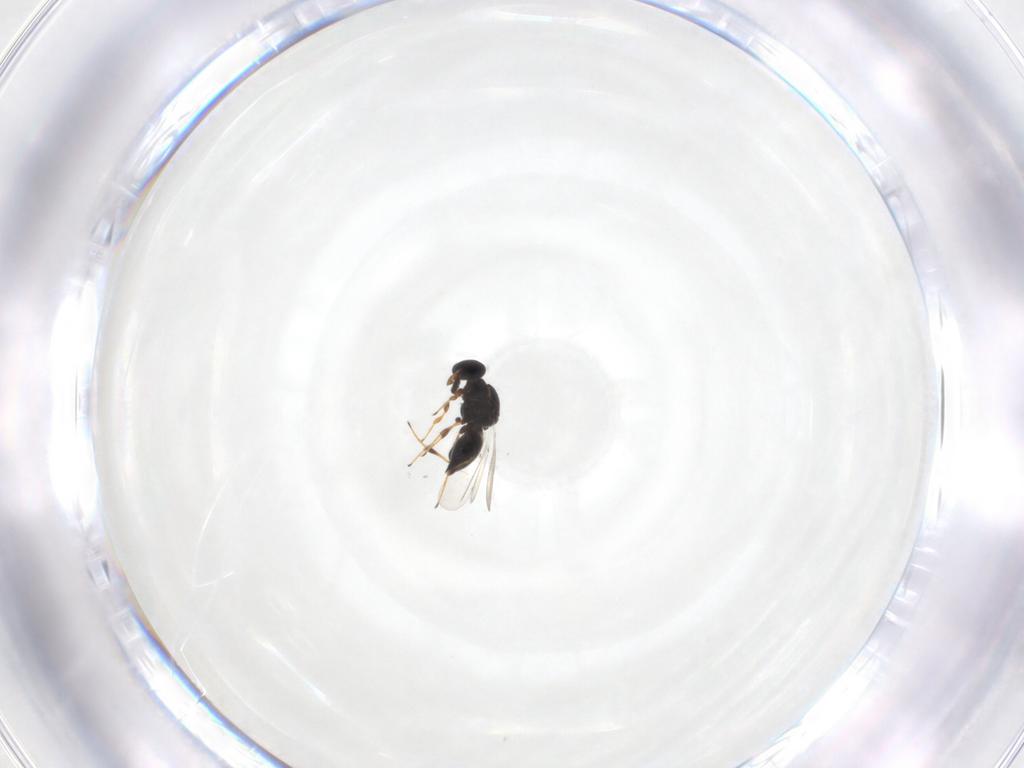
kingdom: Animalia
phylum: Arthropoda
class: Insecta
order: Hymenoptera
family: Platygastridae
